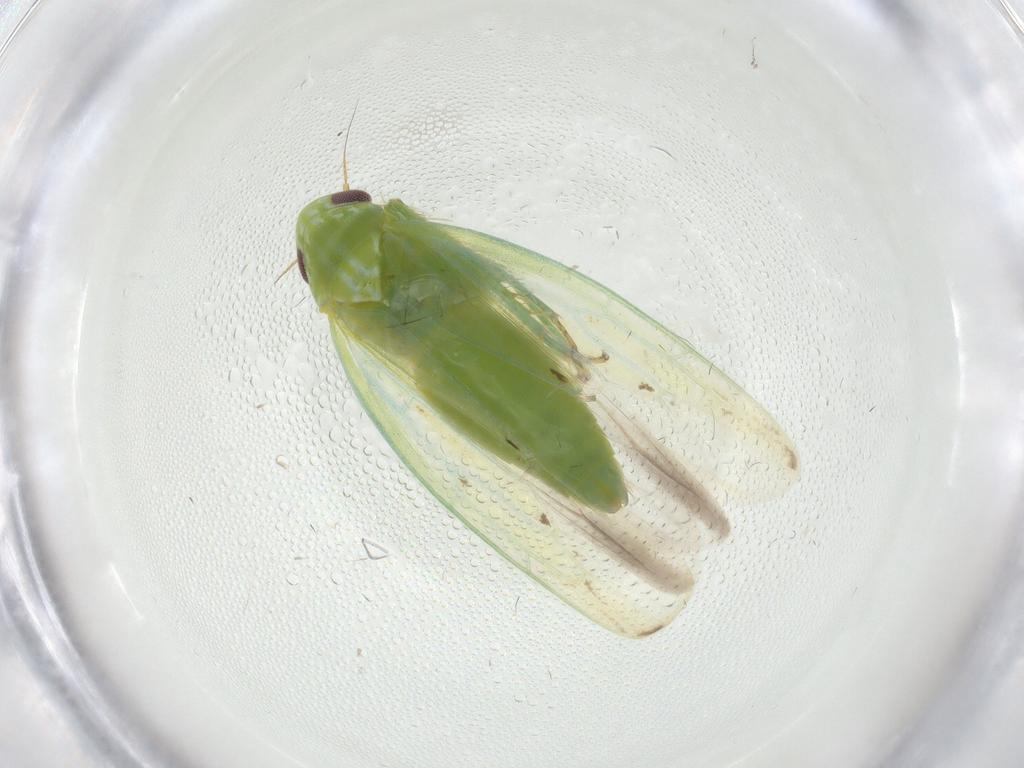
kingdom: Animalia
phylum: Arthropoda
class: Insecta
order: Hemiptera
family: Cicadellidae
